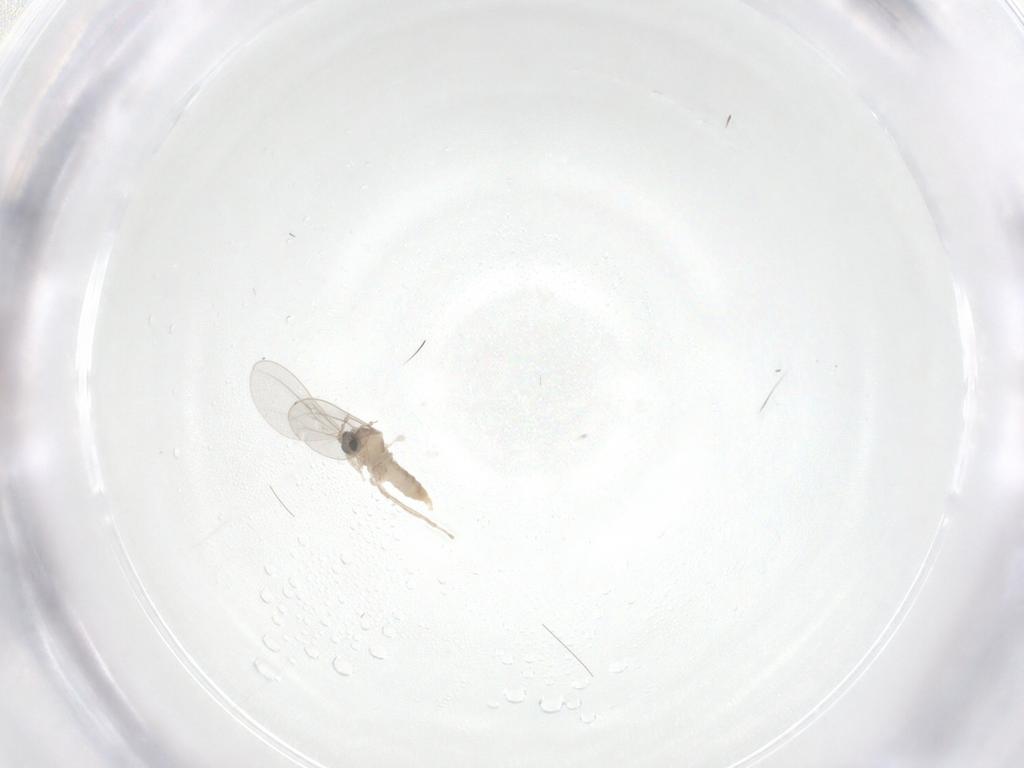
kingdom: Animalia
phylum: Arthropoda
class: Insecta
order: Diptera
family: Cecidomyiidae
